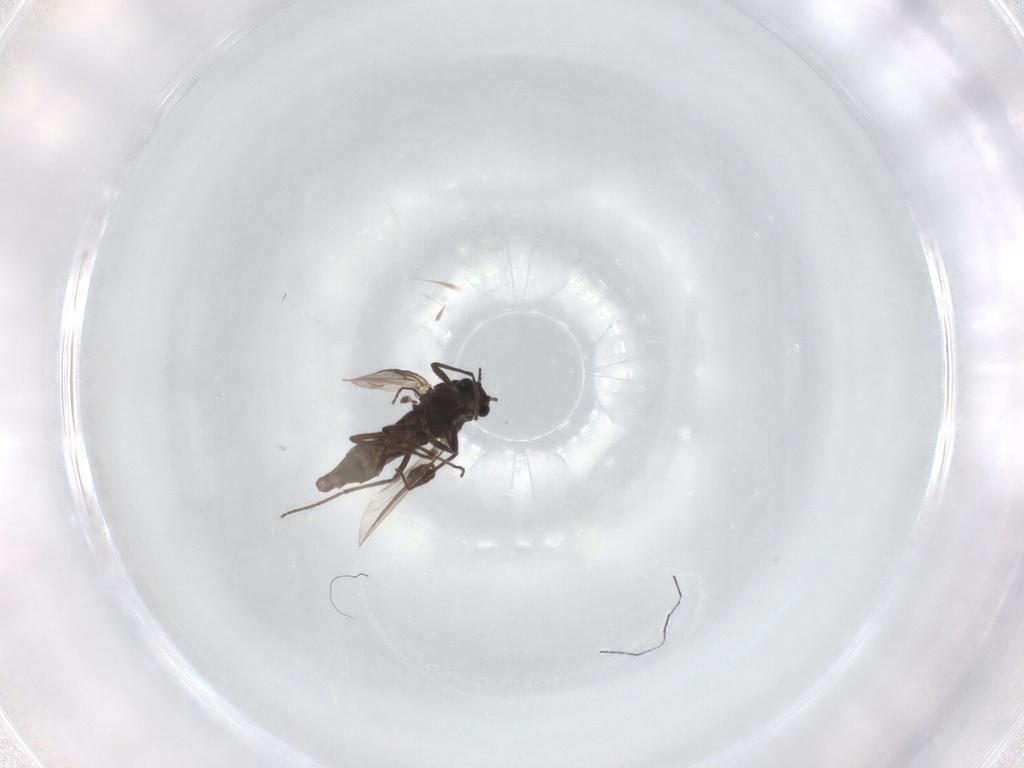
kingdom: Animalia
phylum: Arthropoda
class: Insecta
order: Diptera
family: Chironomidae
